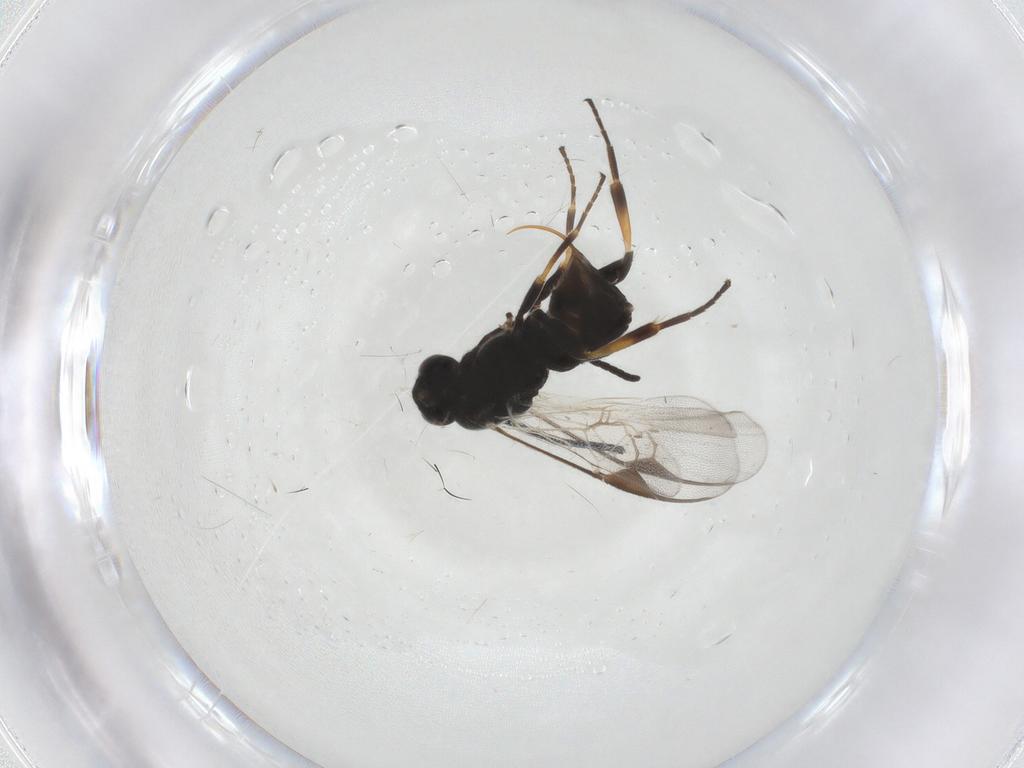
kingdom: Animalia
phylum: Arthropoda
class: Insecta
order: Hymenoptera
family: Braconidae
